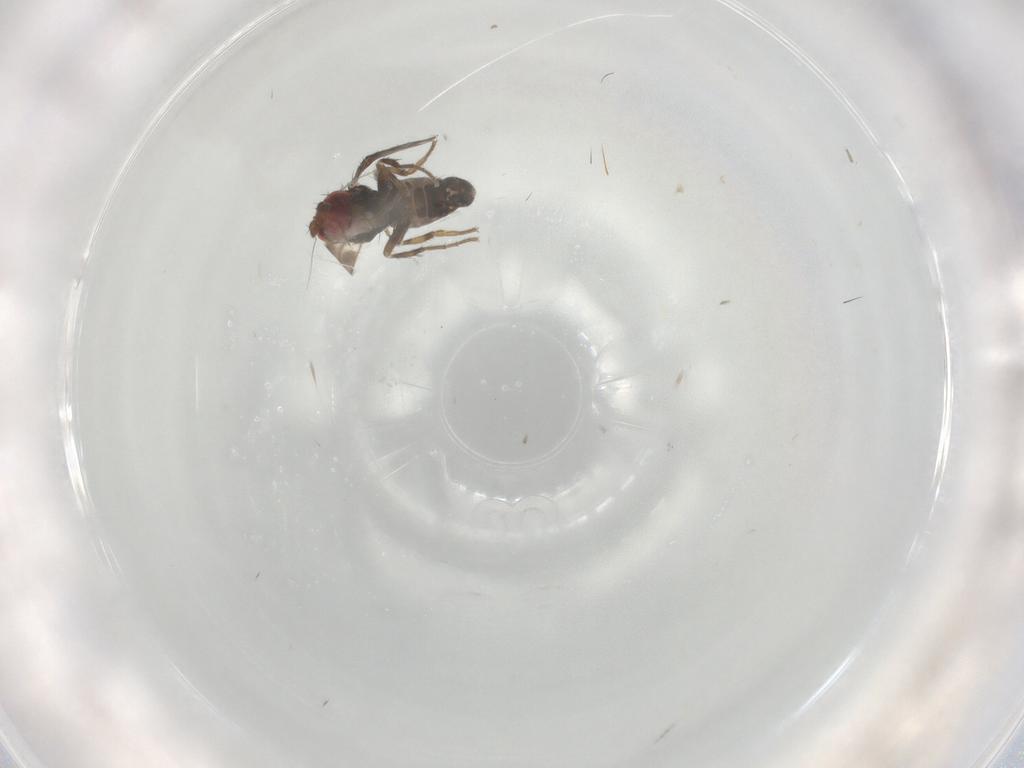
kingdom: Animalia
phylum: Arthropoda
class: Insecta
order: Diptera
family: Sphaeroceridae
